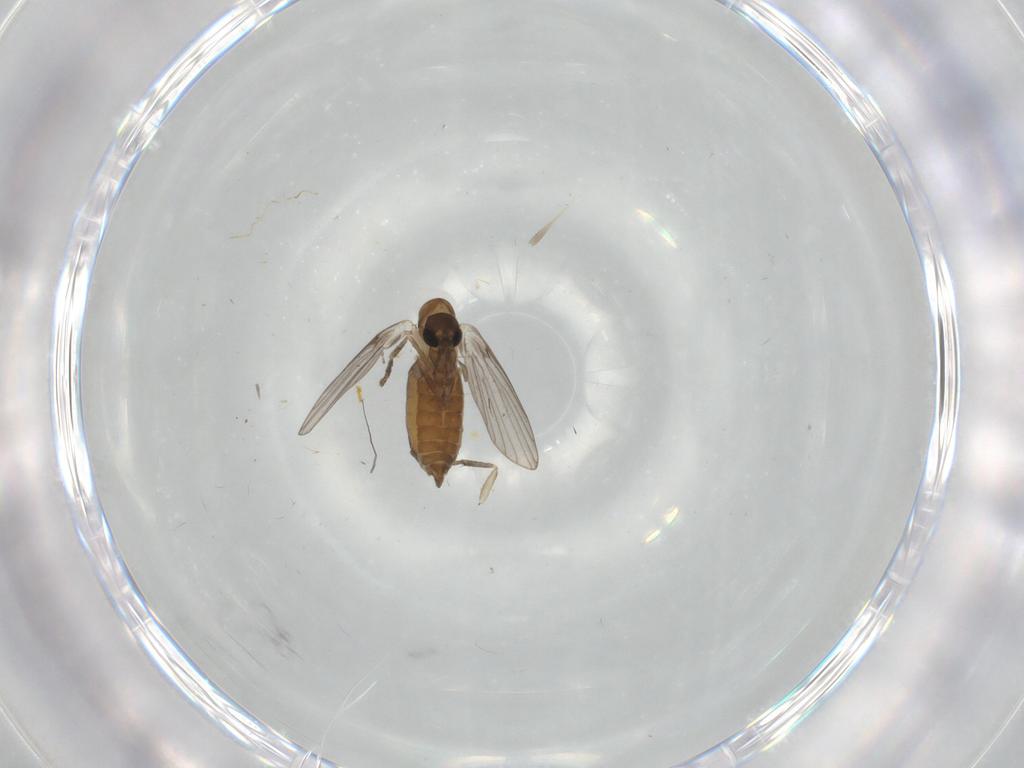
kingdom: Animalia
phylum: Arthropoda
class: Insecta
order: Diptera
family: Psychodidae
